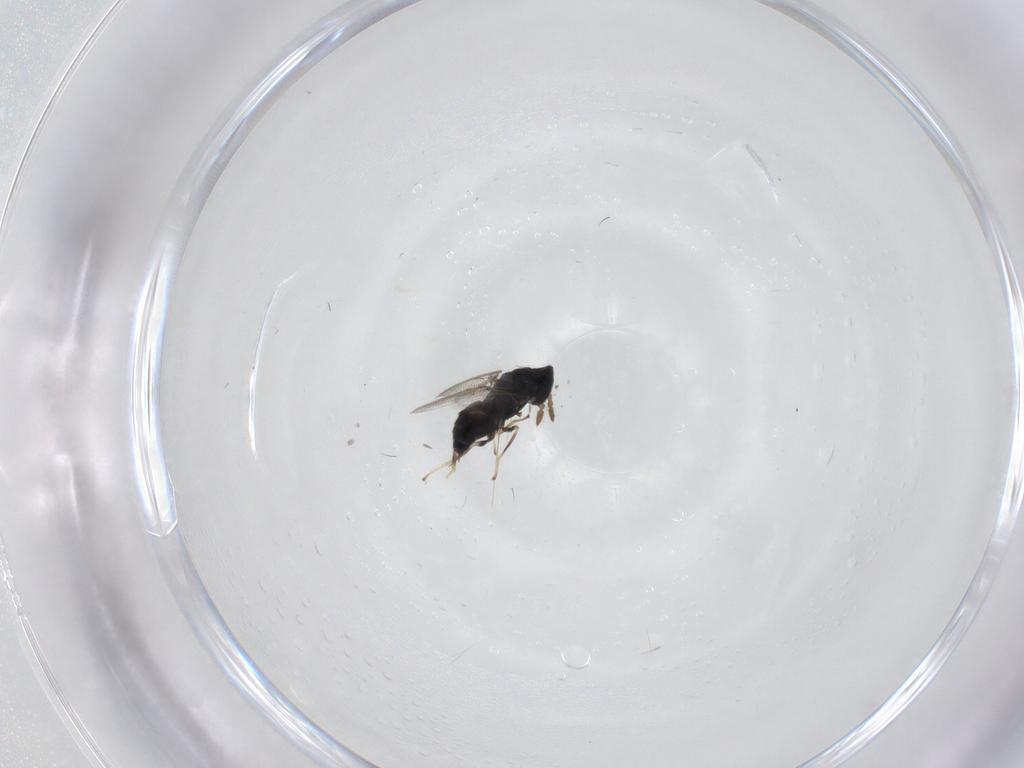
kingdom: Animalia
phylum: Arthropoda
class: Insecta
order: Hymenoptera
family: Eulophidae
